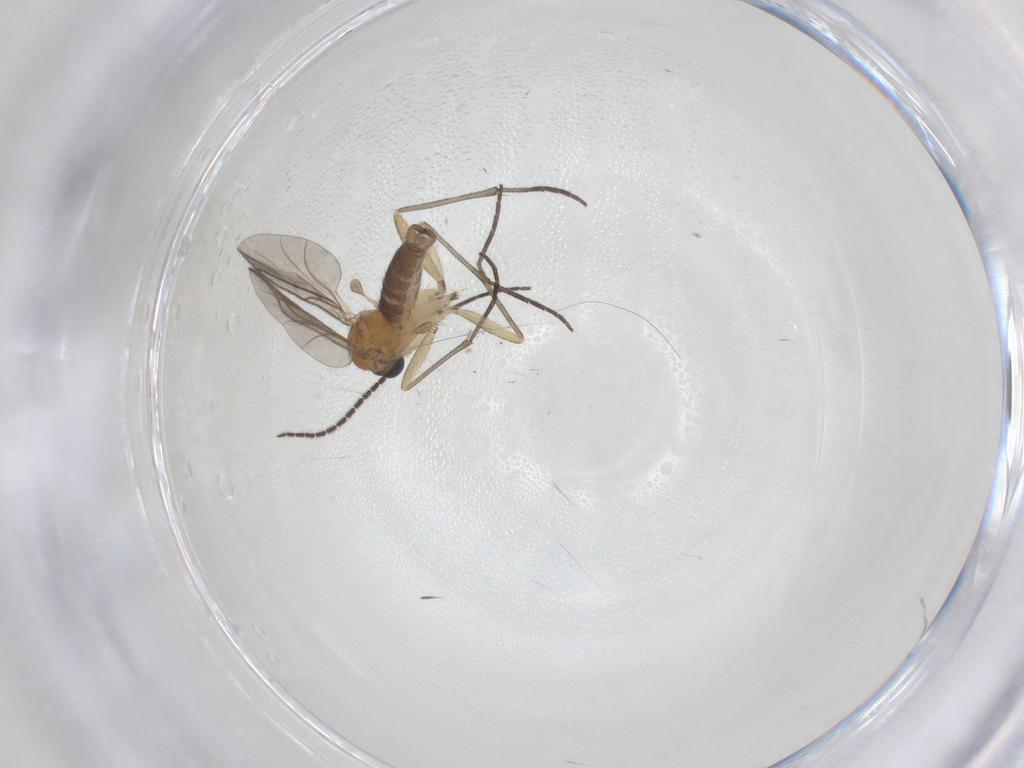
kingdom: Animalia
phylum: Arthropoda
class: Insecta
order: Diptera
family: Sciaridae
